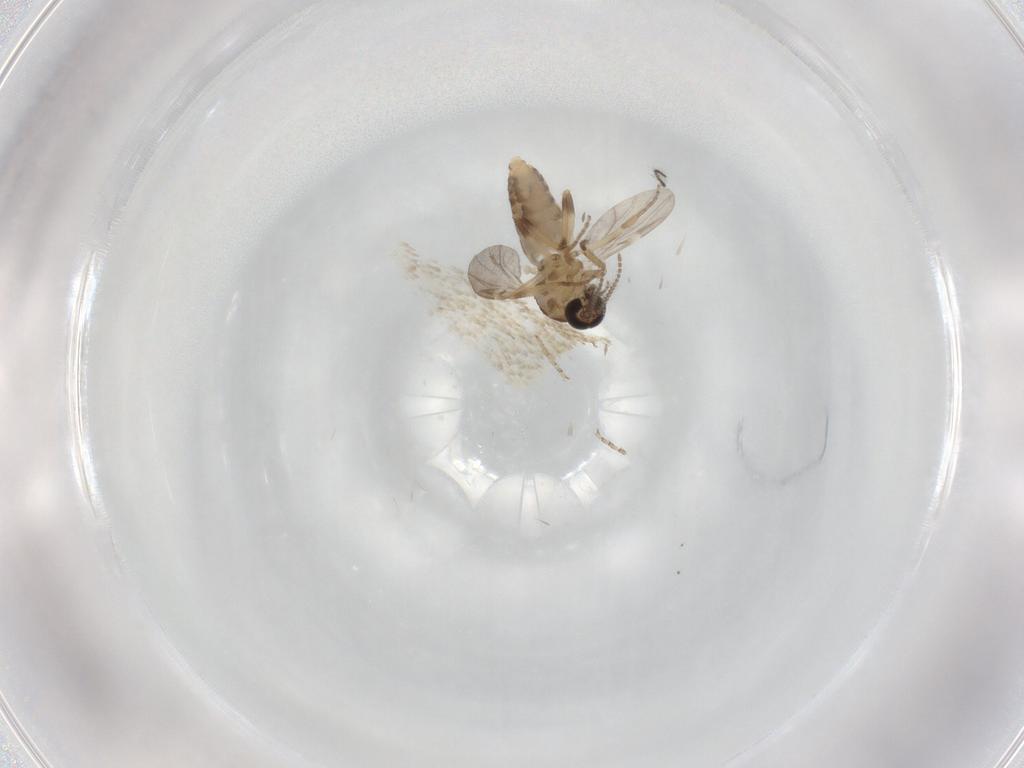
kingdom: Animalia
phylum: Arthropoda
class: Insecta
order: Diptera
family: Ceratopogonidae
